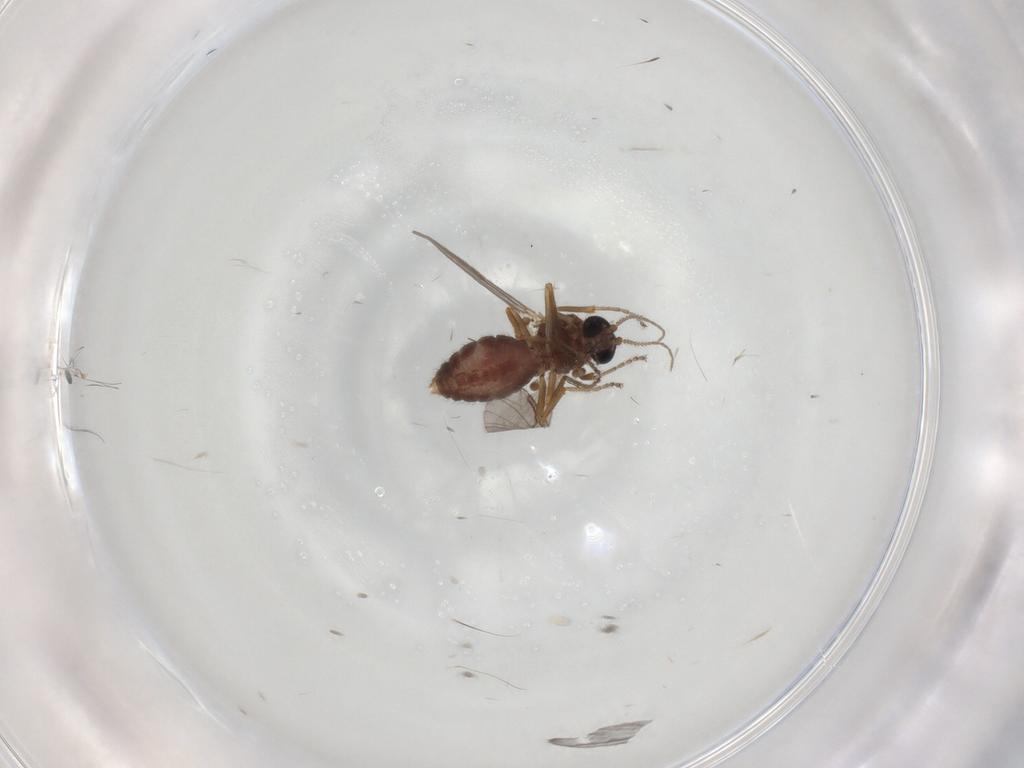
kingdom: Animalia
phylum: Arthropoda
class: Insecta
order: Diptera
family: Ceratopogonidae
